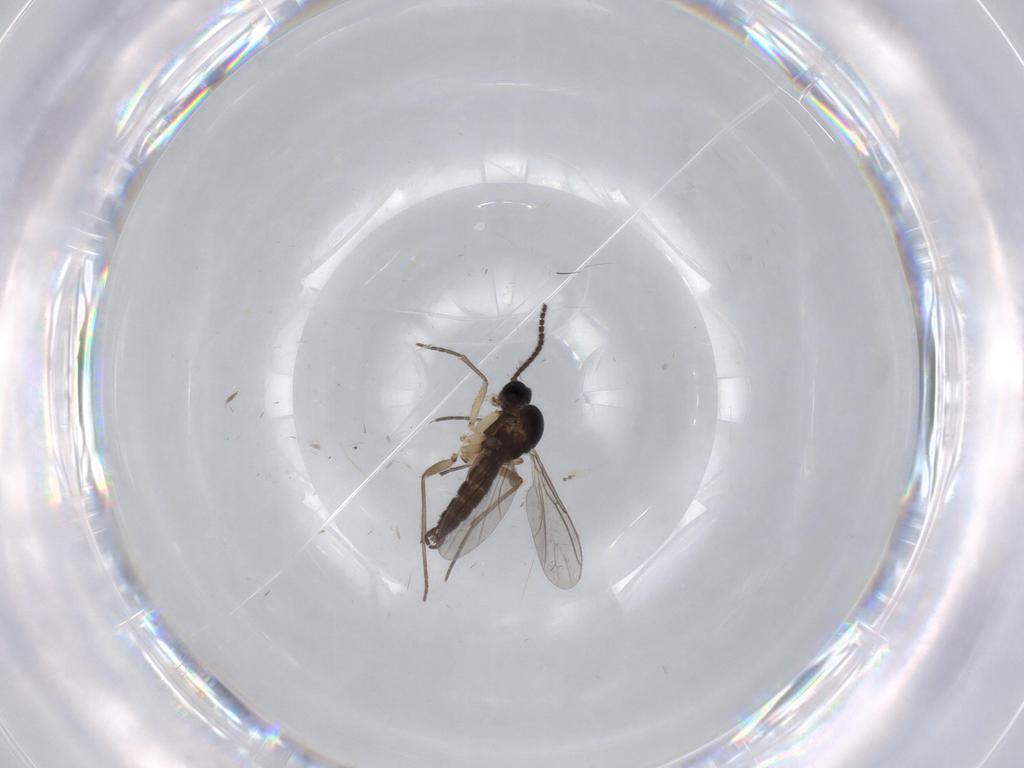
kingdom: Animalia
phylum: Arthropoda
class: Insecta
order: Diptera
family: Sciaridae
